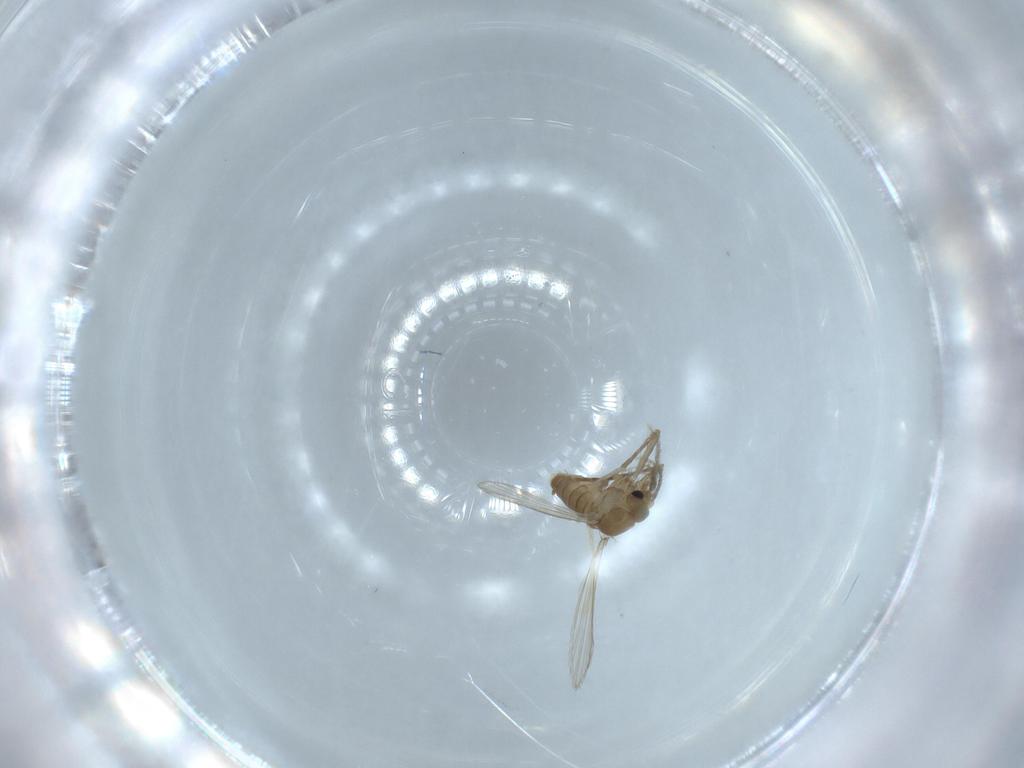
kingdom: Animalia
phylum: Arthropoda
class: Insecta
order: Diptera
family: Psychodidae
